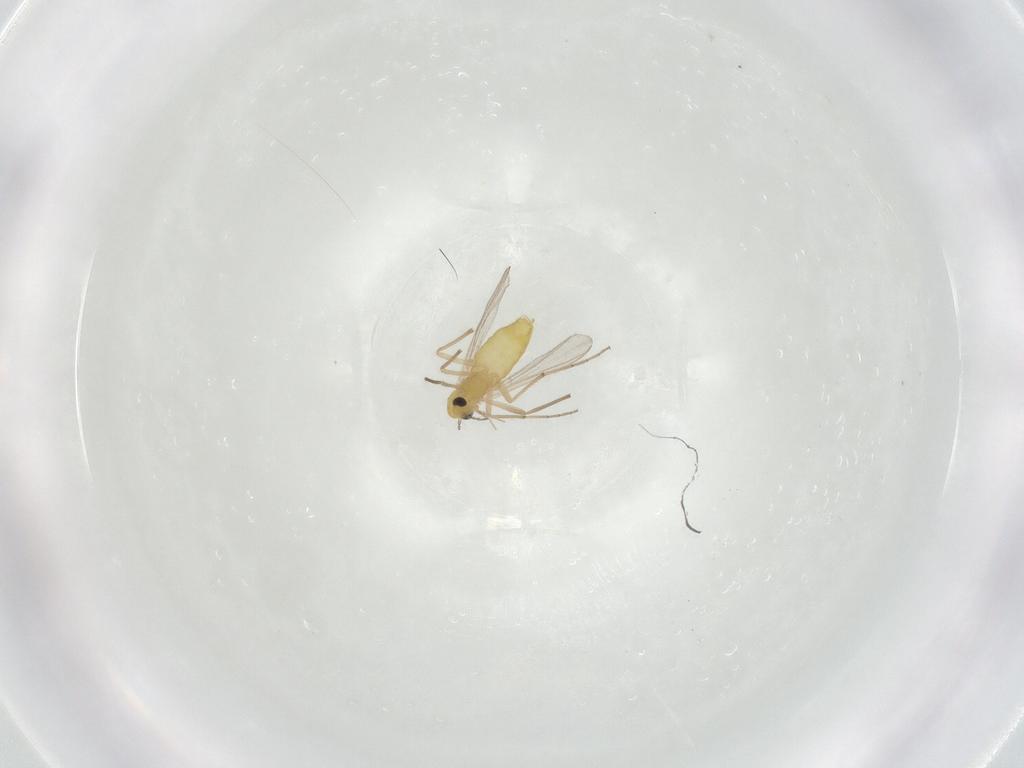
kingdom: Animalia
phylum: Arthropoda
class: Insecta
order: Diptera
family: Chironomidae
